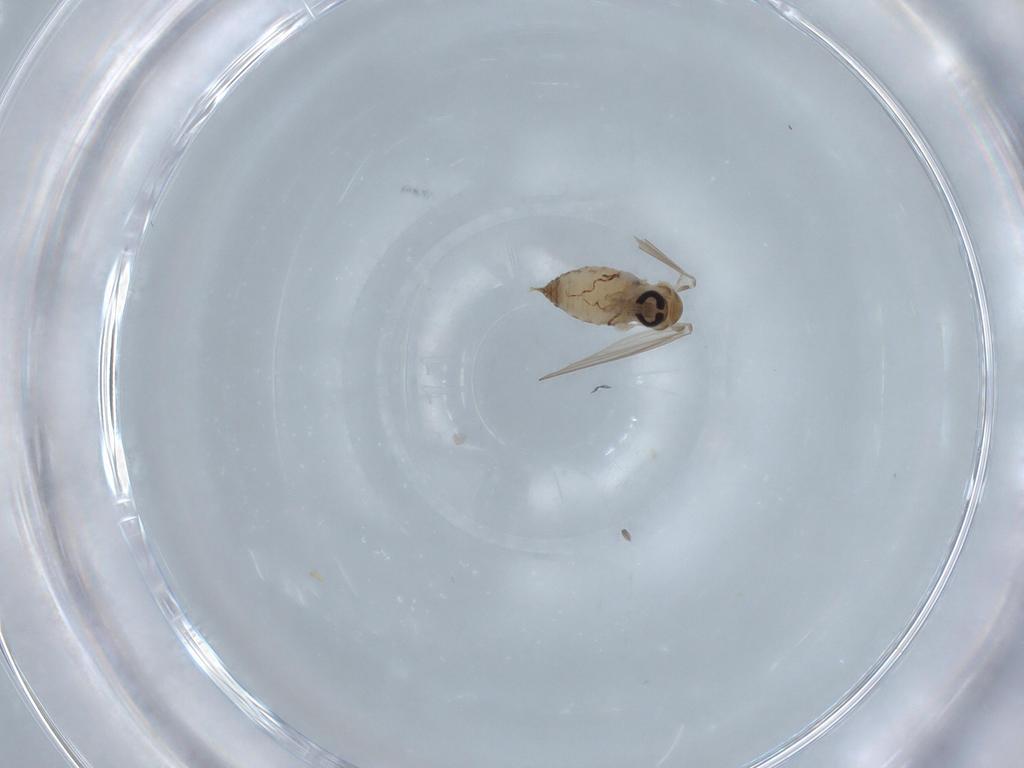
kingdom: Animalia
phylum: Arthropoda
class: Insecta
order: Diptera
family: Psychodidae
